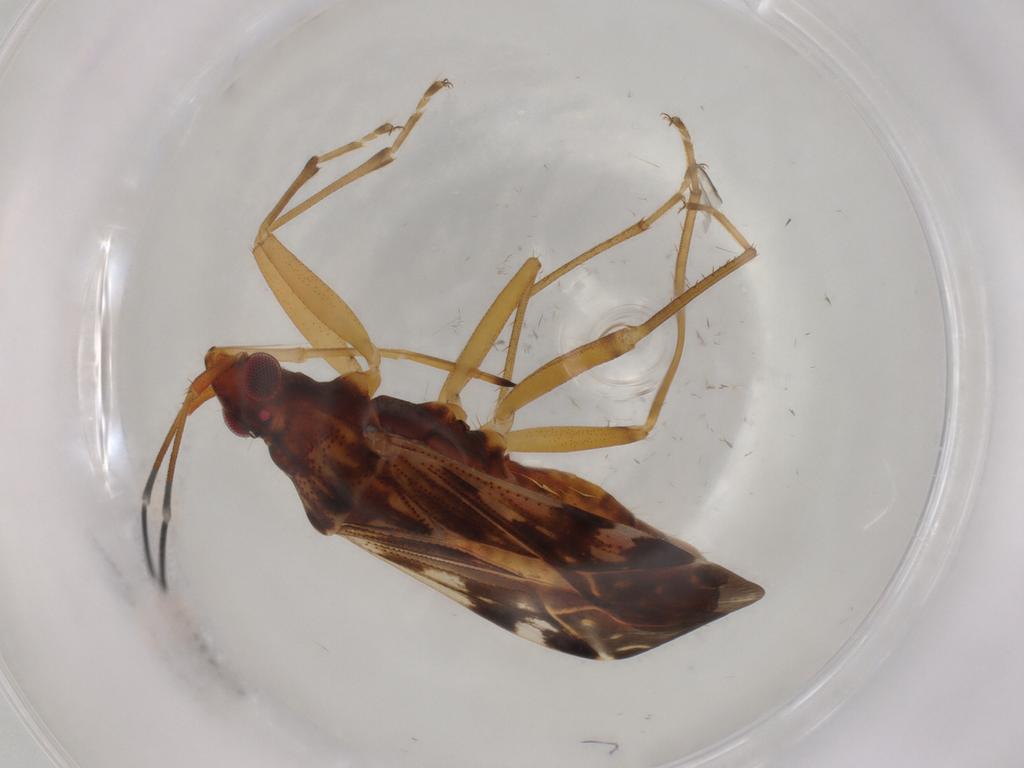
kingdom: Animalia
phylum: Arthropoda
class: Insecta
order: Hemiptera
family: Rhyparochromidae
